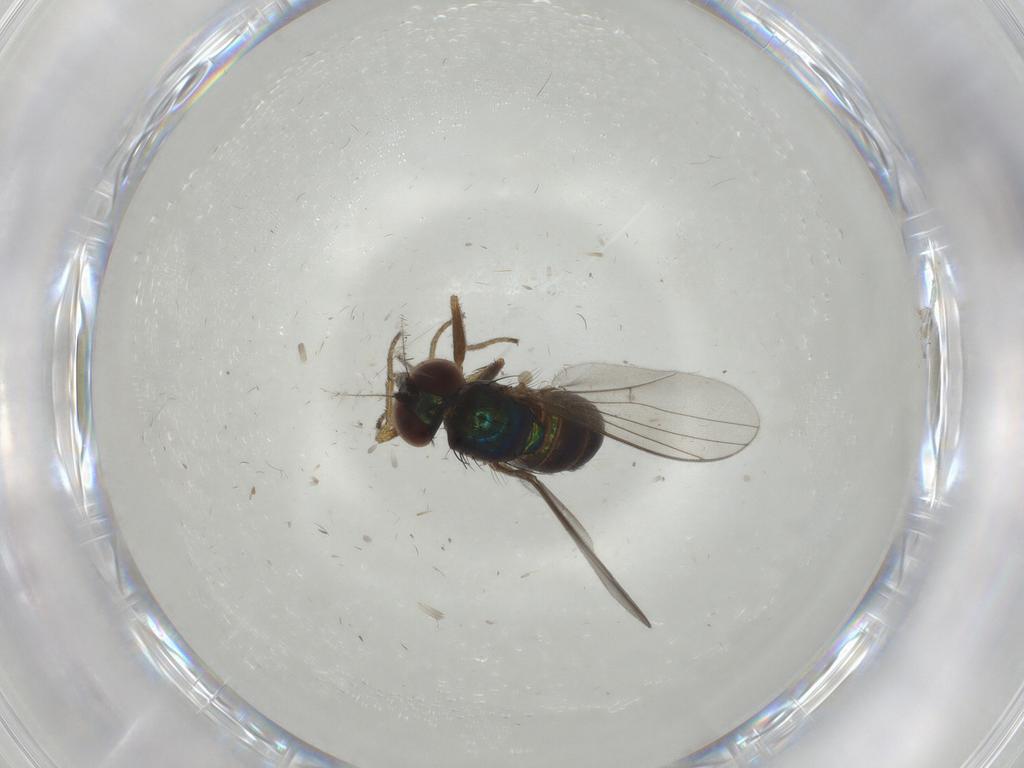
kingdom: Animalia
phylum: Arthropoda
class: Insecta
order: Diptera
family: Dolichopodidae
